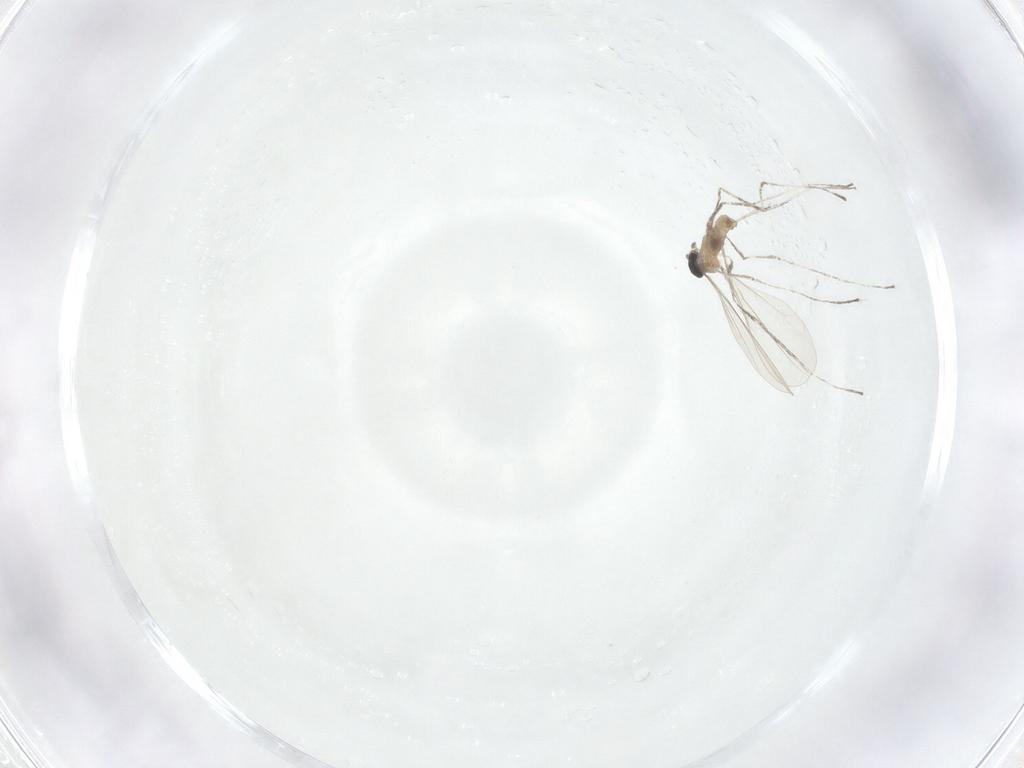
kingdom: Animalia
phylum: Arthropoda
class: Insecta
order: Diptera
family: Cecidomyiidae
